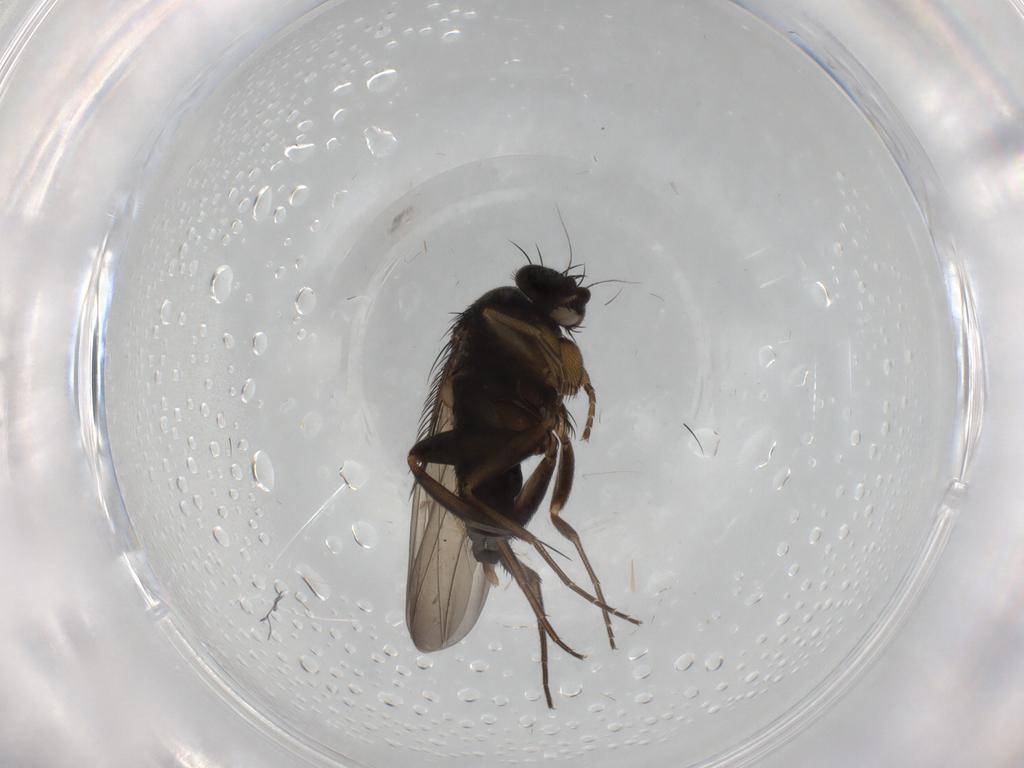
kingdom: Animalia
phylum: Arthropoda
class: Insecta
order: Diptera
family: Phoridae
